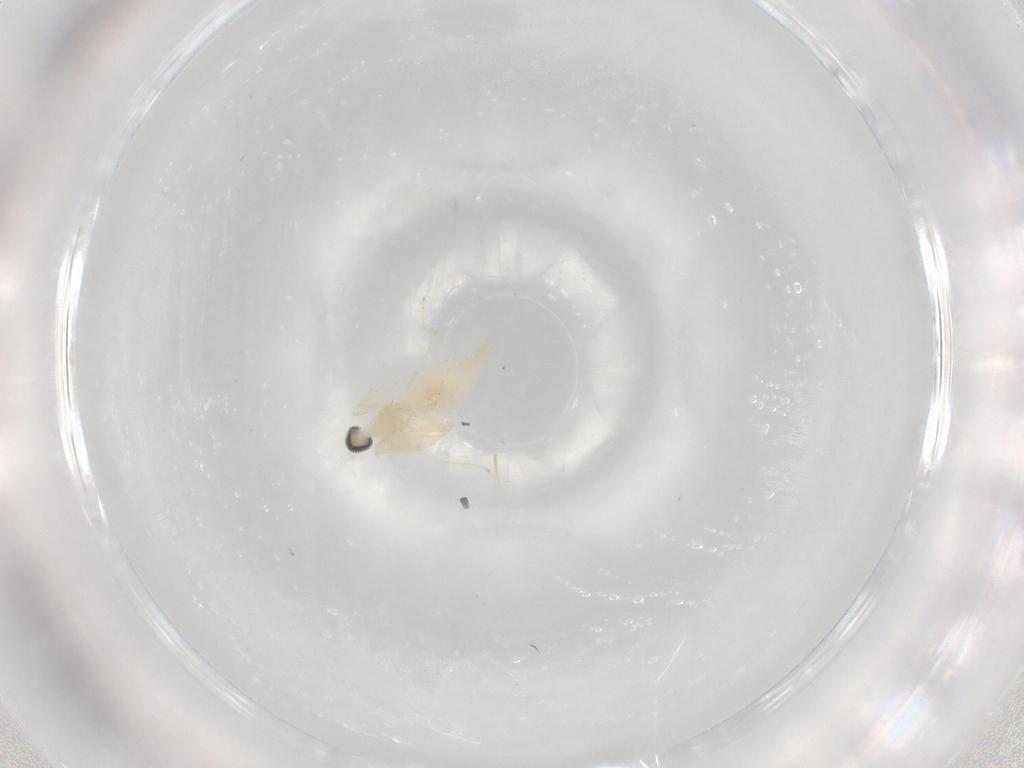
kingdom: Animalia
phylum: Arthropoda
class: Insecta
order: Diptera
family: Cecidomyiidae
